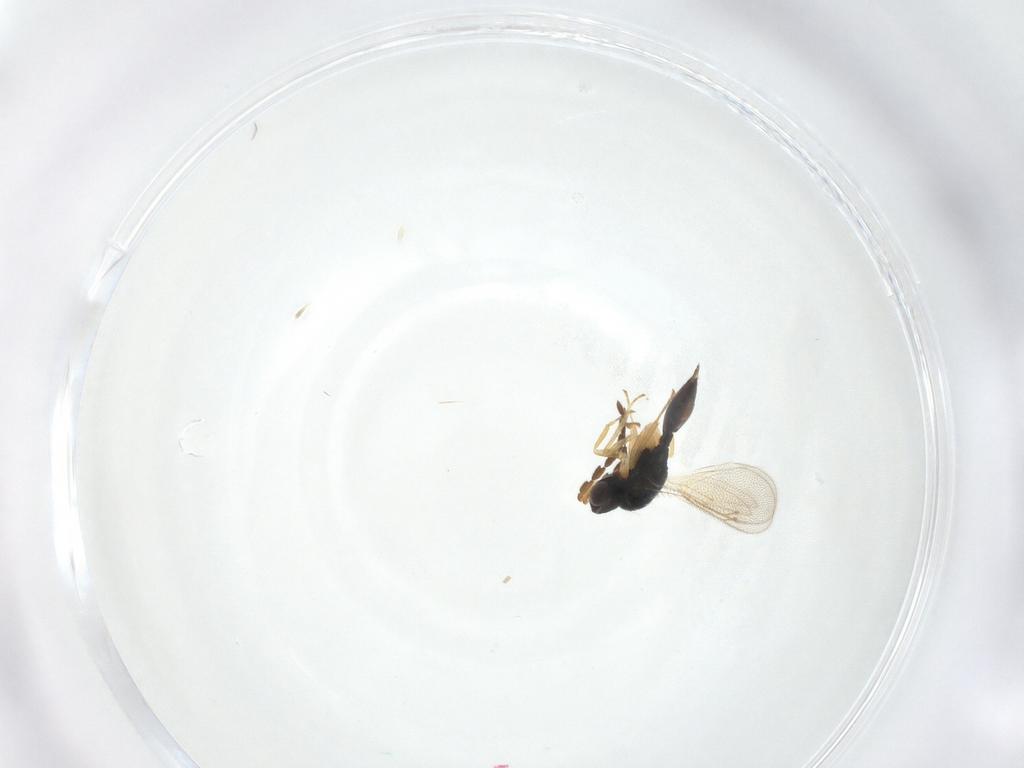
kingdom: Animalia
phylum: Arthropoda
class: Insecta
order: Hymenoptera
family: Eulophidae
